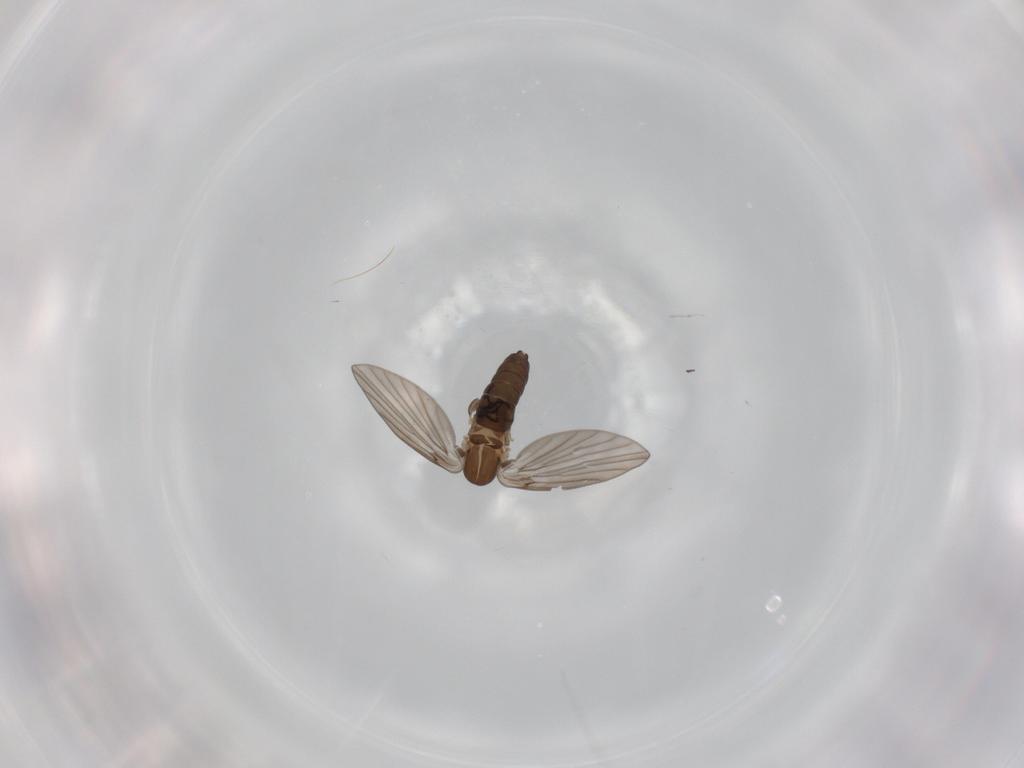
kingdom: Animalia
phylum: Arthropoda
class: Insecta
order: Diptera
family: Psychodidae
